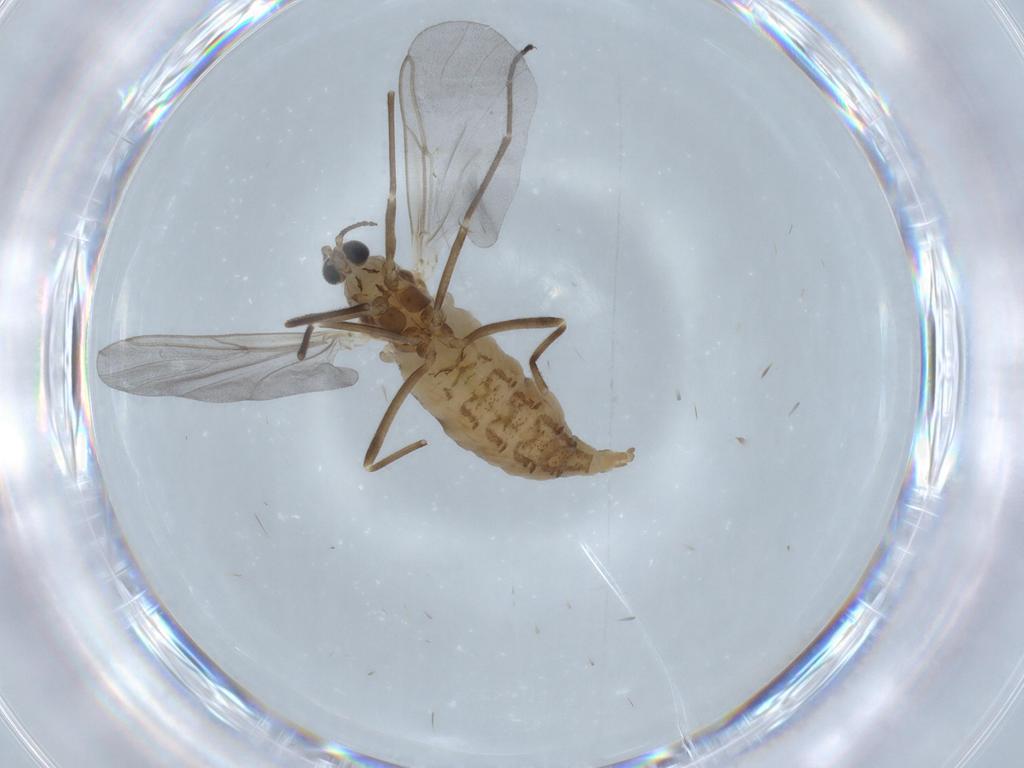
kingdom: Animalia
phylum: Arthropoda
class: Insecta
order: Diptera
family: Cecidomyiidae
